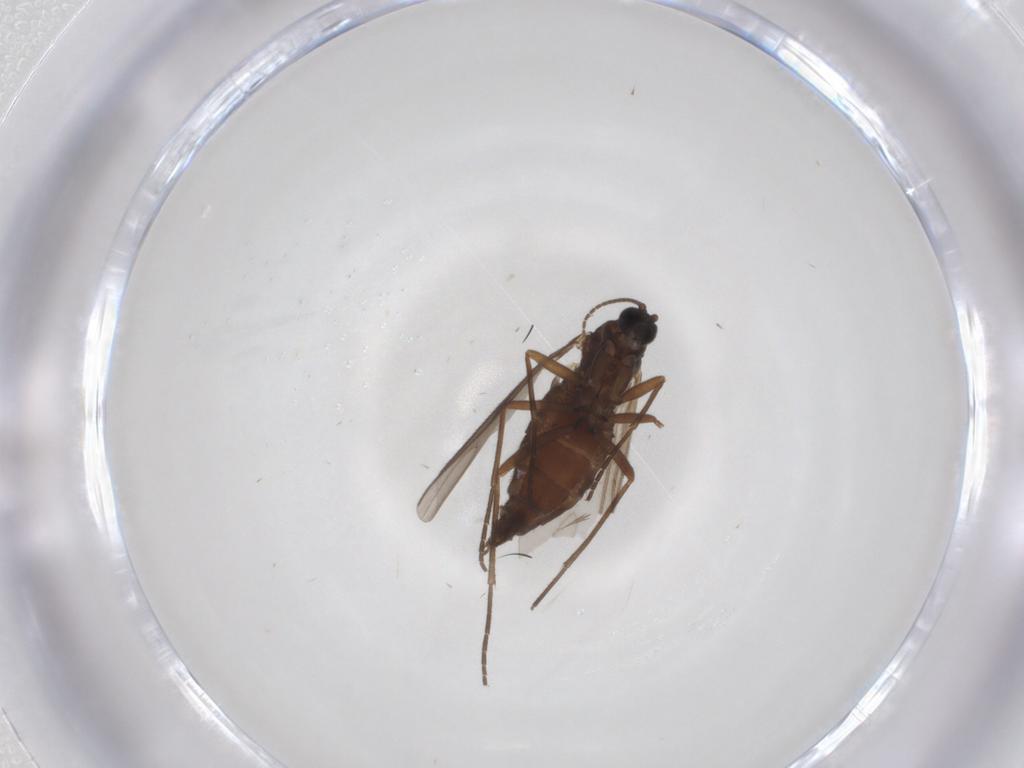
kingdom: Animalia
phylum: Arthropoda
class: Insecta
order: Diptera
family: Sciaridae
